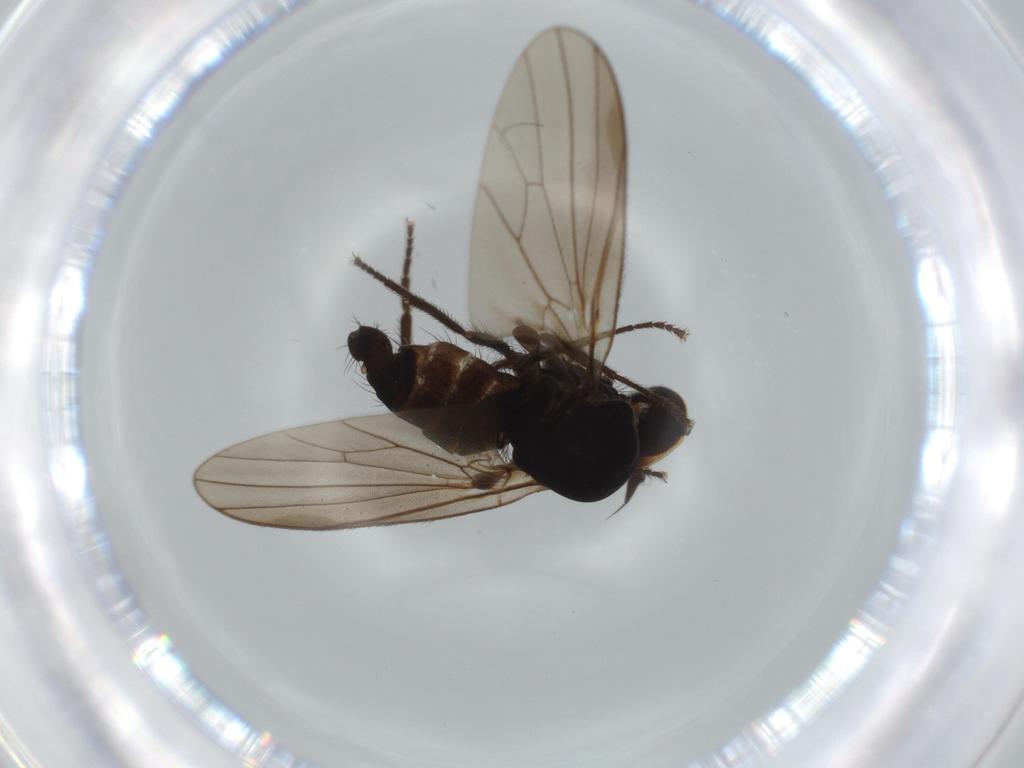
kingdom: Animalia
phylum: Arthropoda
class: Insecta
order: Diptera
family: Dolichopodidae
